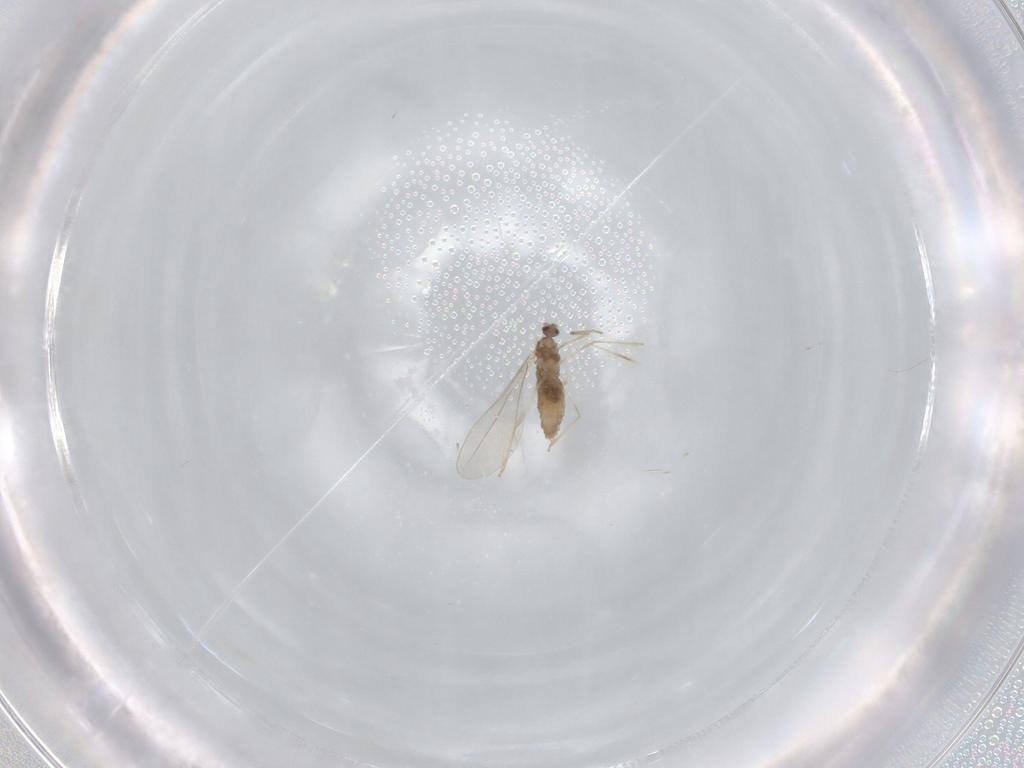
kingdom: Animalia
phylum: Arthropoda
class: Insecta
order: Diptera
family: Cecidomyiidae
